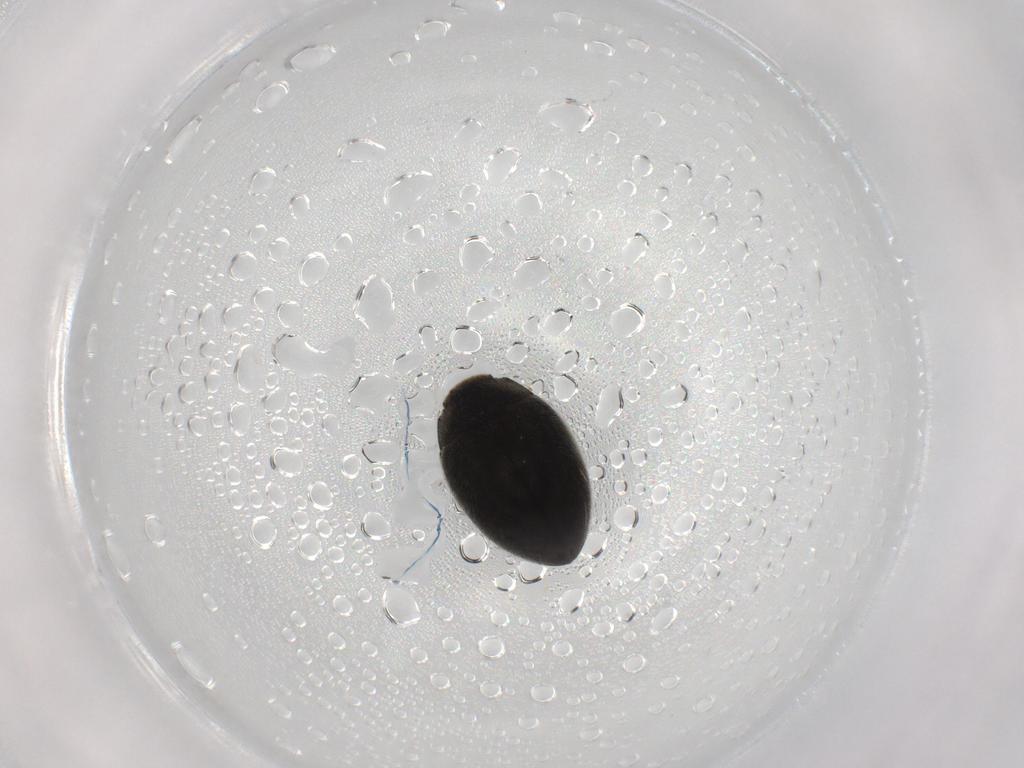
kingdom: Animalia
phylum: Arthropoda
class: Insecta
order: Coleoptera
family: Limnichidae
